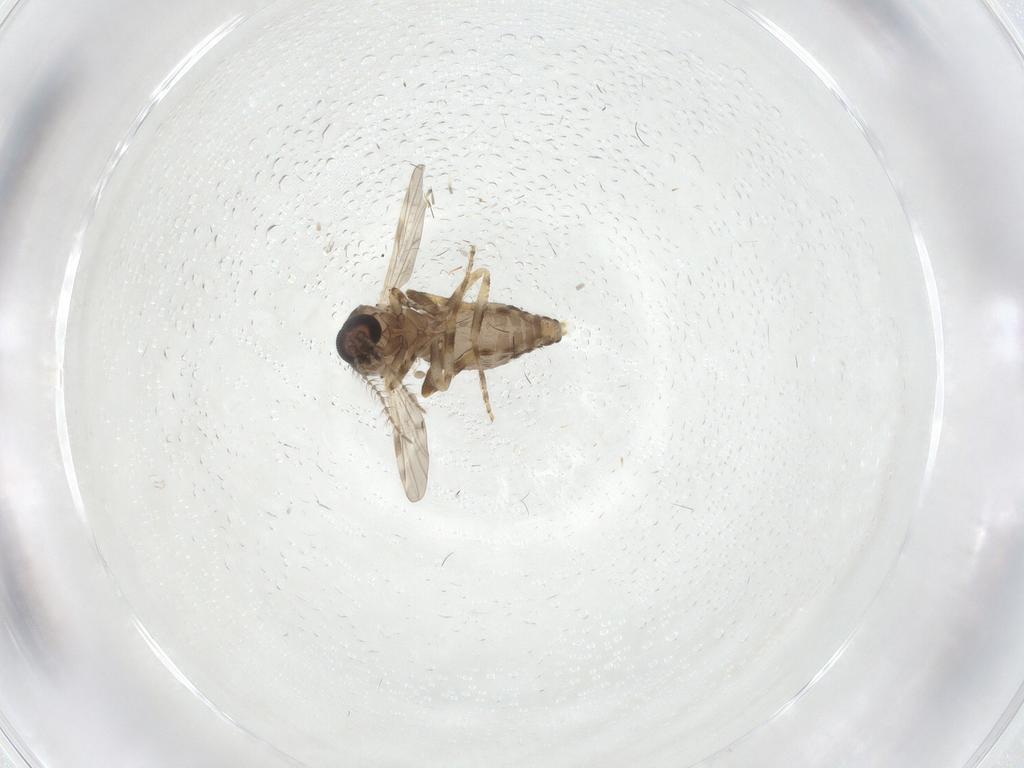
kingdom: Animalia
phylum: Arthropoda
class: Insecta
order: Diptera
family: Ceratopogonidae
